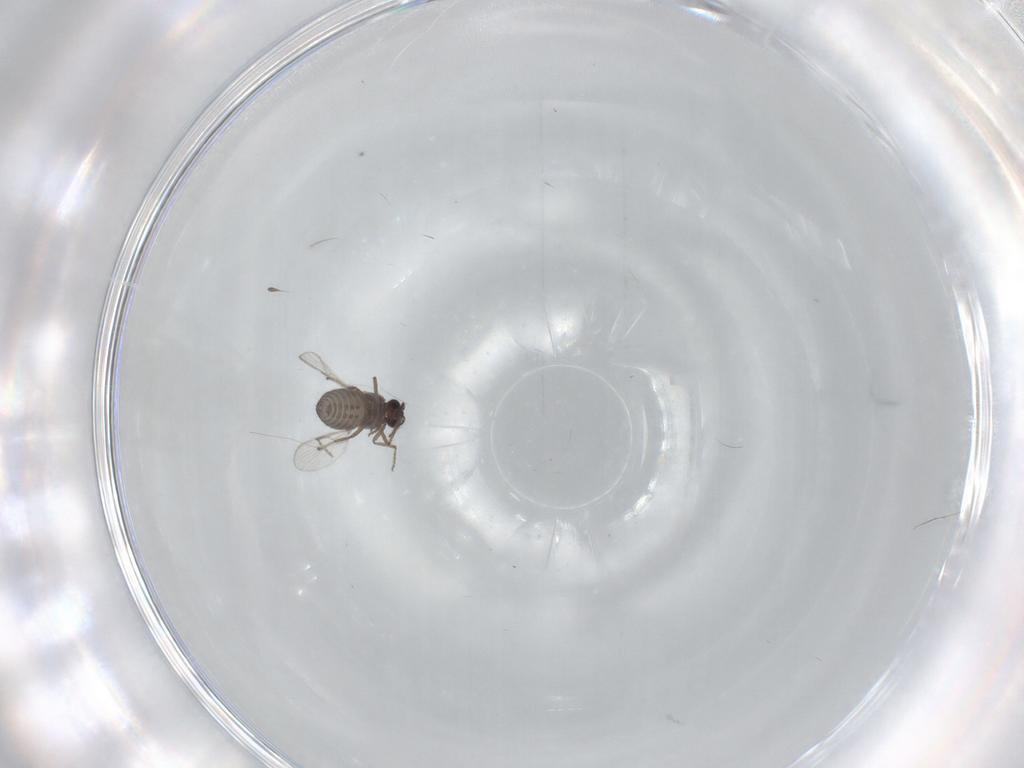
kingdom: Animalia
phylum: Arthropoda
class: Insecta
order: Diptera
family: Ceratopogonidae
